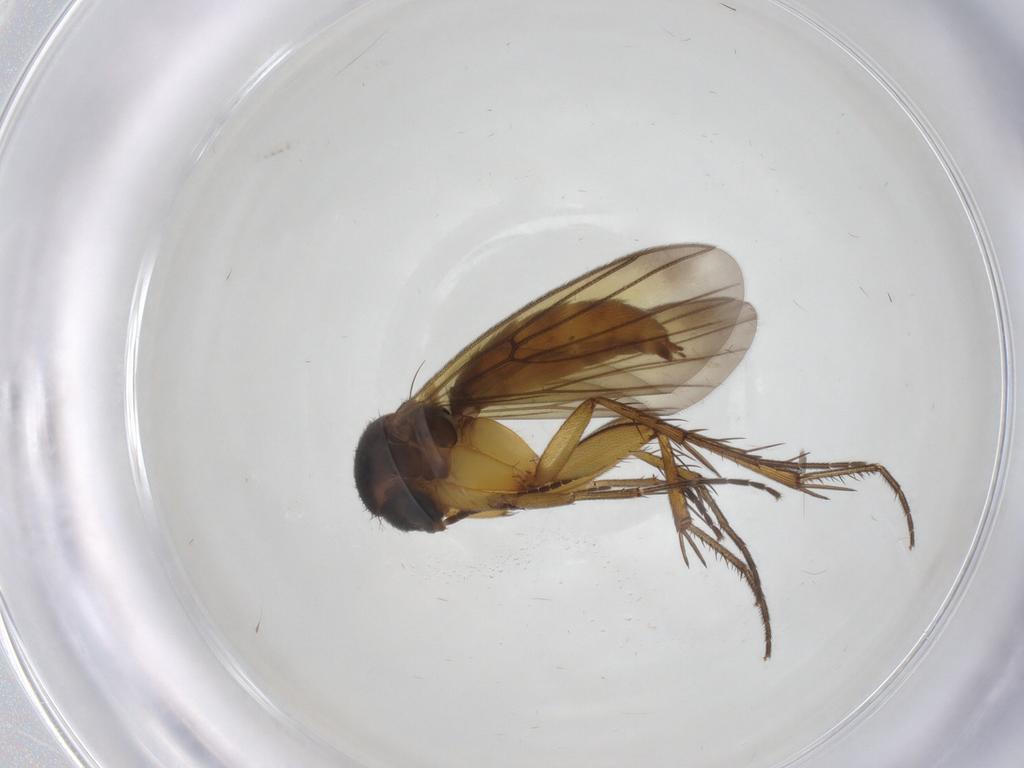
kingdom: Animalia
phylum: Arthropoda
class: Insecta
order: Diptera
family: Mycetophilidae
